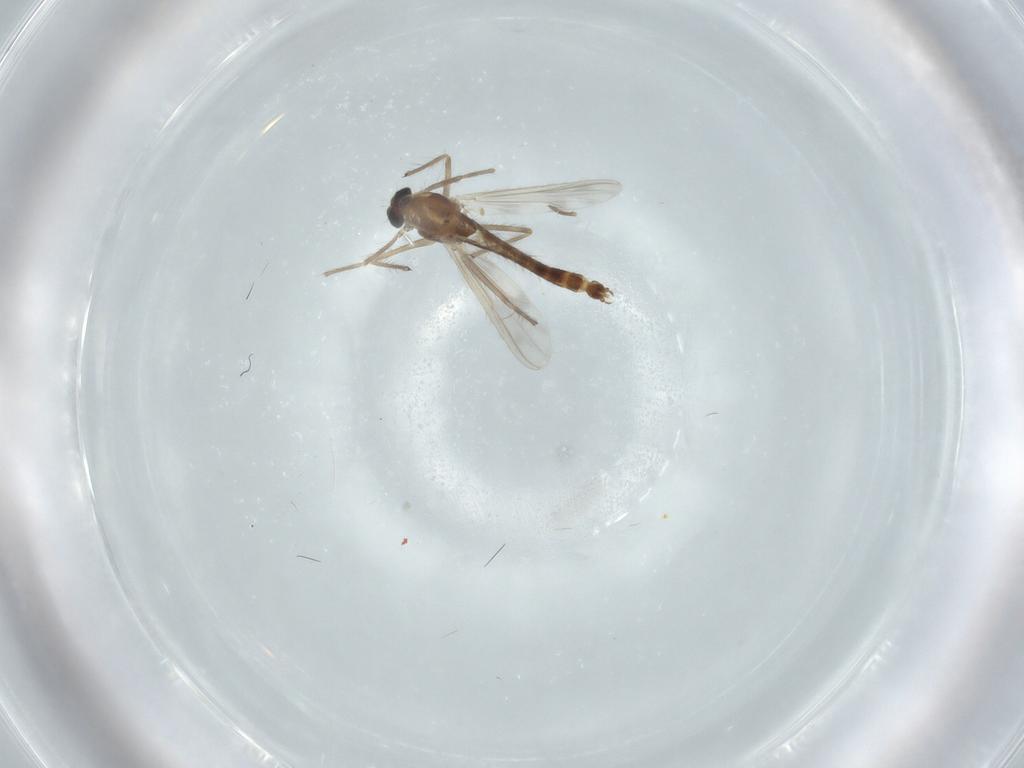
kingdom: Animalia
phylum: Arthropoda
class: Insecta
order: Diptera
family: Chironomidae
